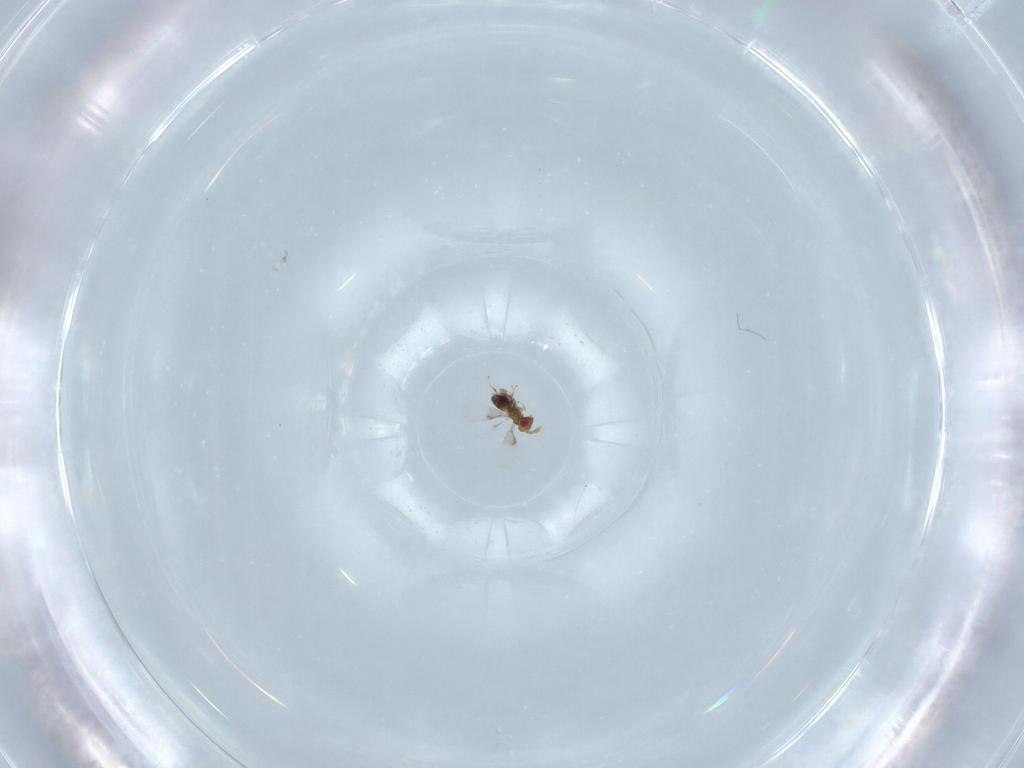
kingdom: Animalia
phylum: Arthropoda
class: Insecta
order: Hymenoptera
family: Trichogrammatidae
